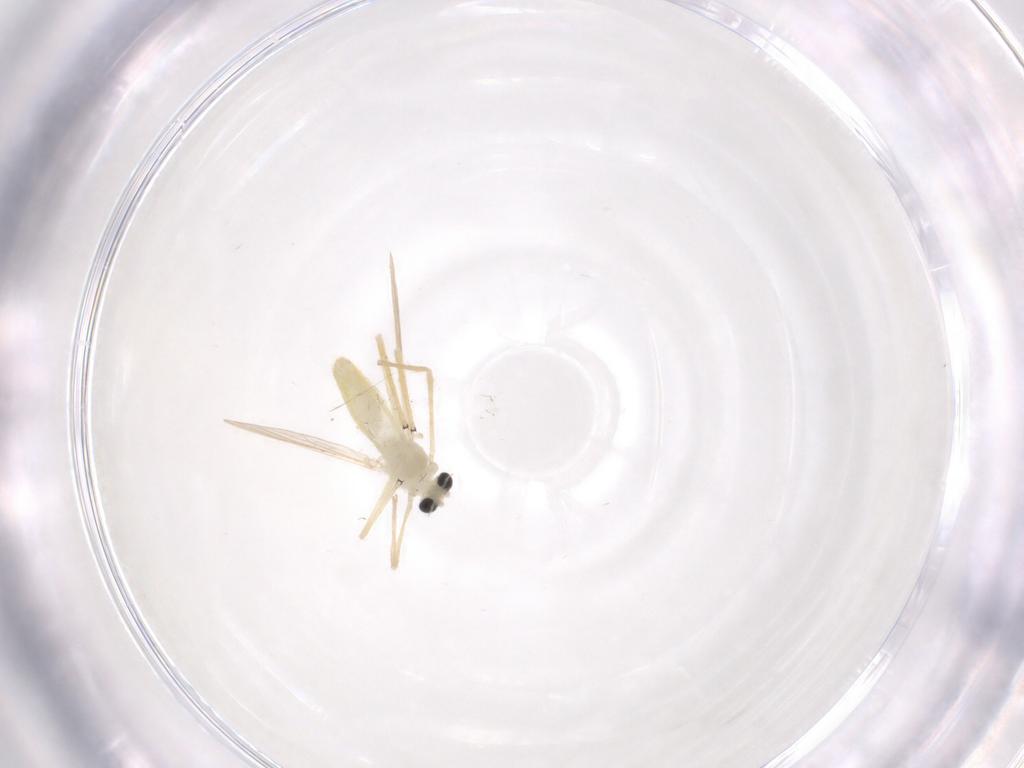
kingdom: Animalia
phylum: Arthropoda
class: Insecta
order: Diptera
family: Chironomidae
